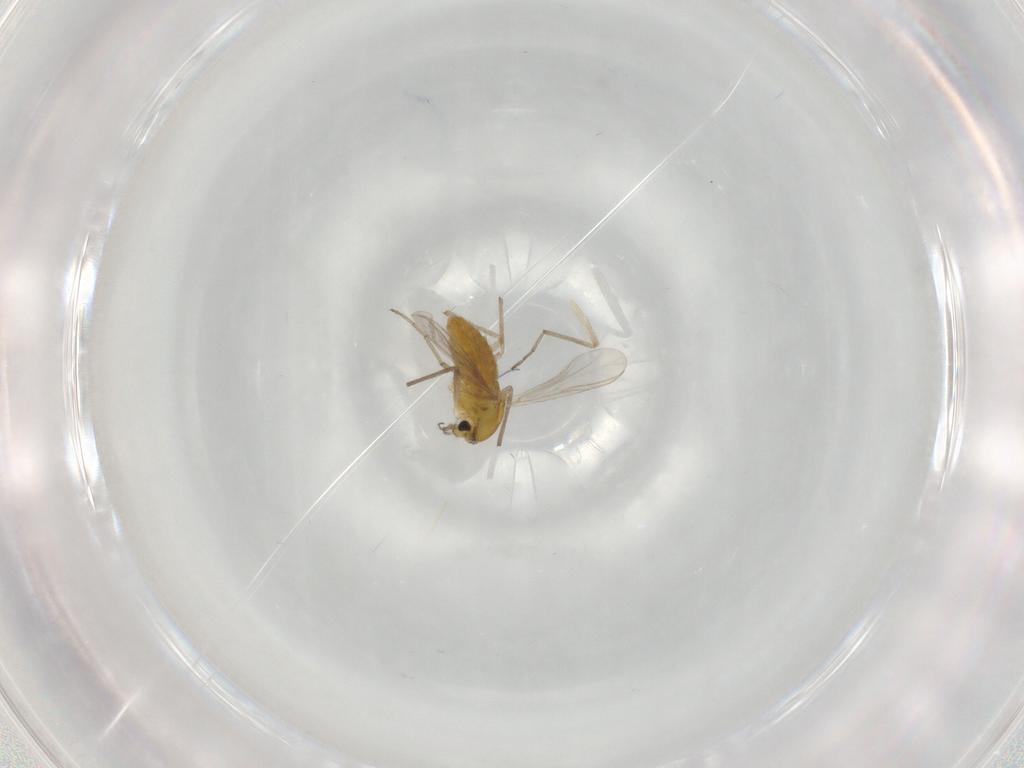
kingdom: Animalia
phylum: Arthropoda
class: Insecta
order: Diptera
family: Chironomidae
